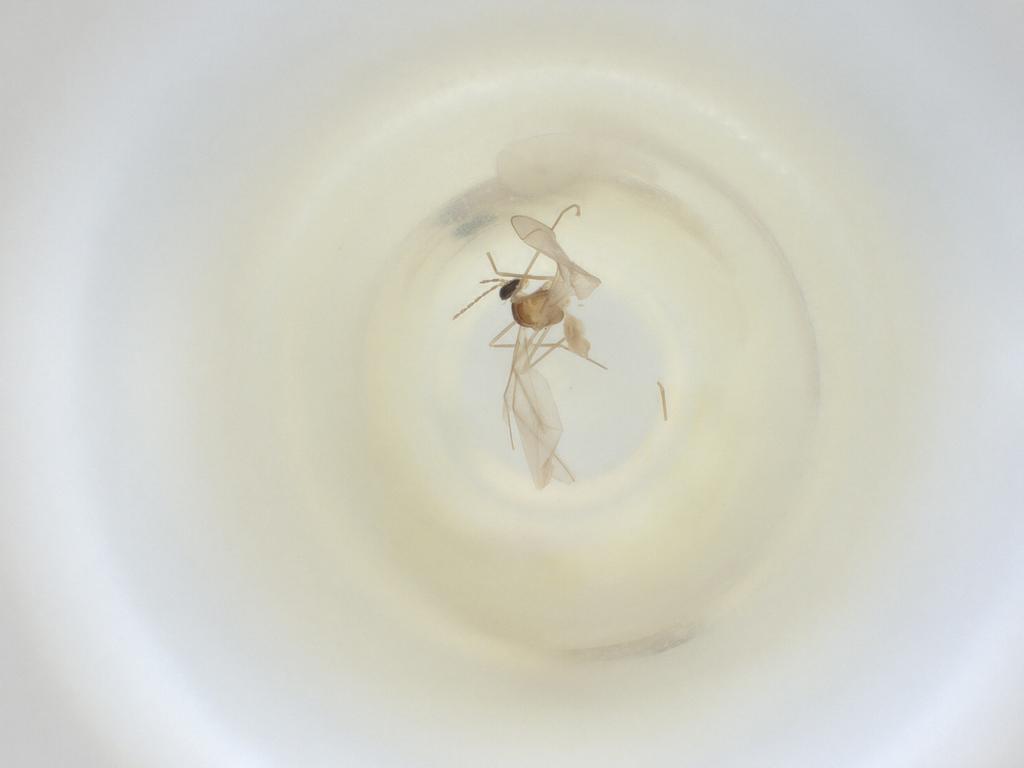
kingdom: Animalia
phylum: Arthropoda
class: Insecta
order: Diptera
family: Cecidomyiidae
